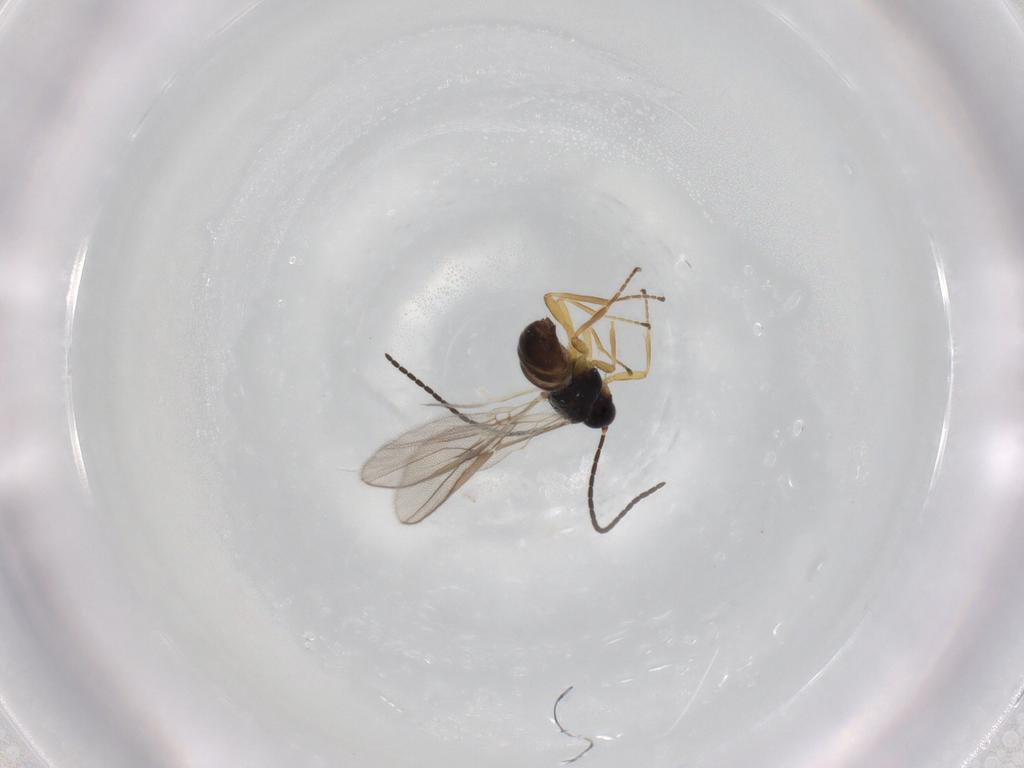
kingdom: Animalia
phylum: Arthropoda
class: Insecta
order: Hymenoptera
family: Braconidae
